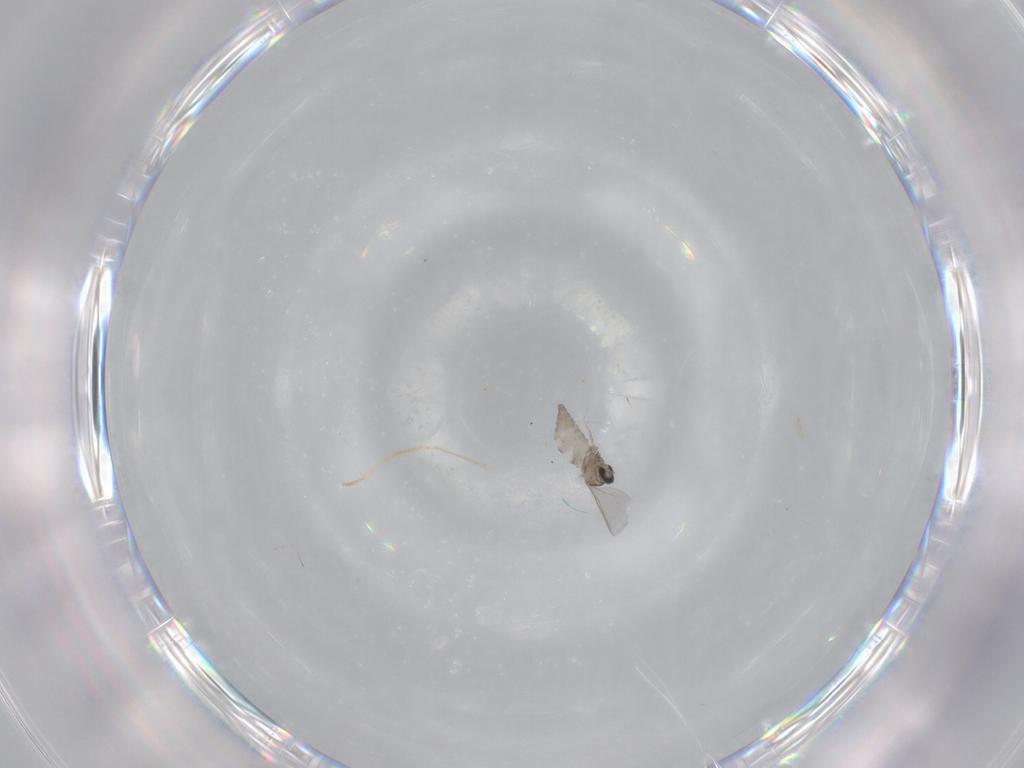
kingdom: Animalia
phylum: Arthropoda
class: Insecta
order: Diptera
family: Cecidomyiidae
